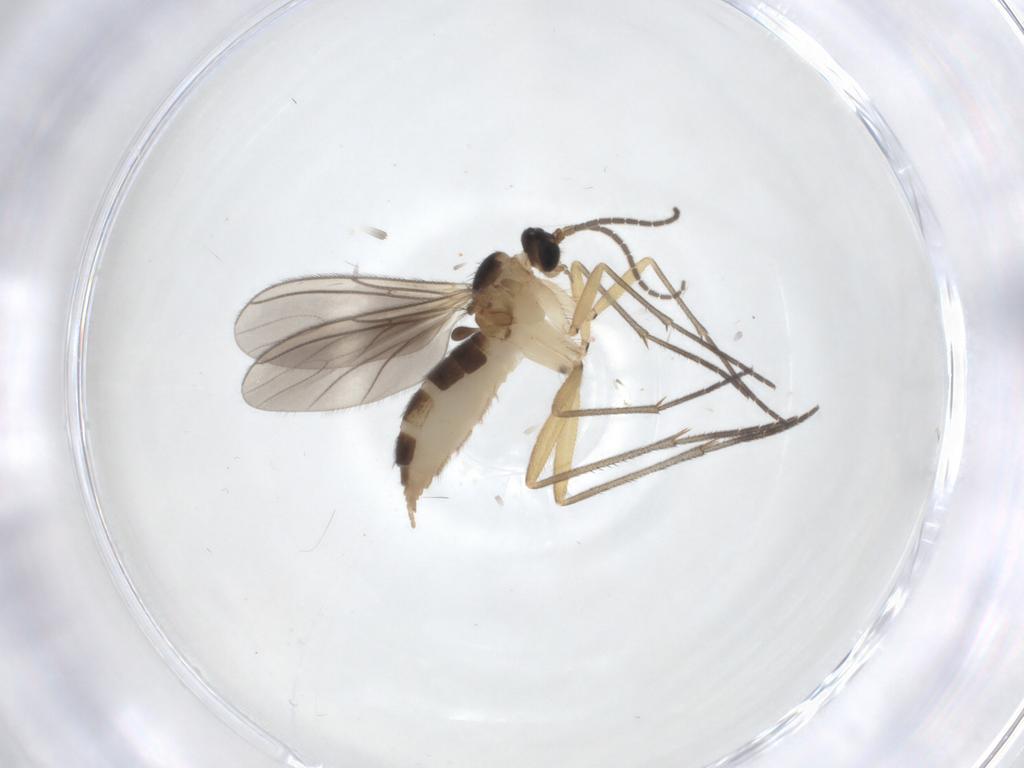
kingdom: Animalia
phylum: Arthropoda
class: Insecta
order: Diptera
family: Sciaridae
